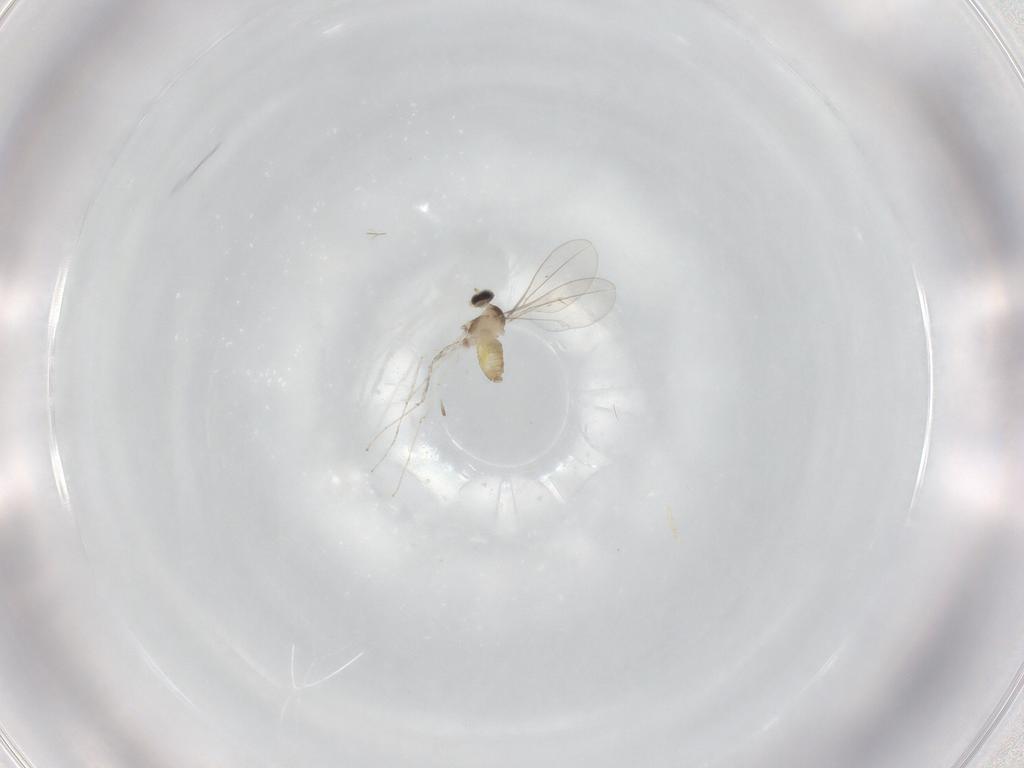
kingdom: Animalia
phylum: Arthropoda
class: Insecta
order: Diptera
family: Cecidomyiidae
